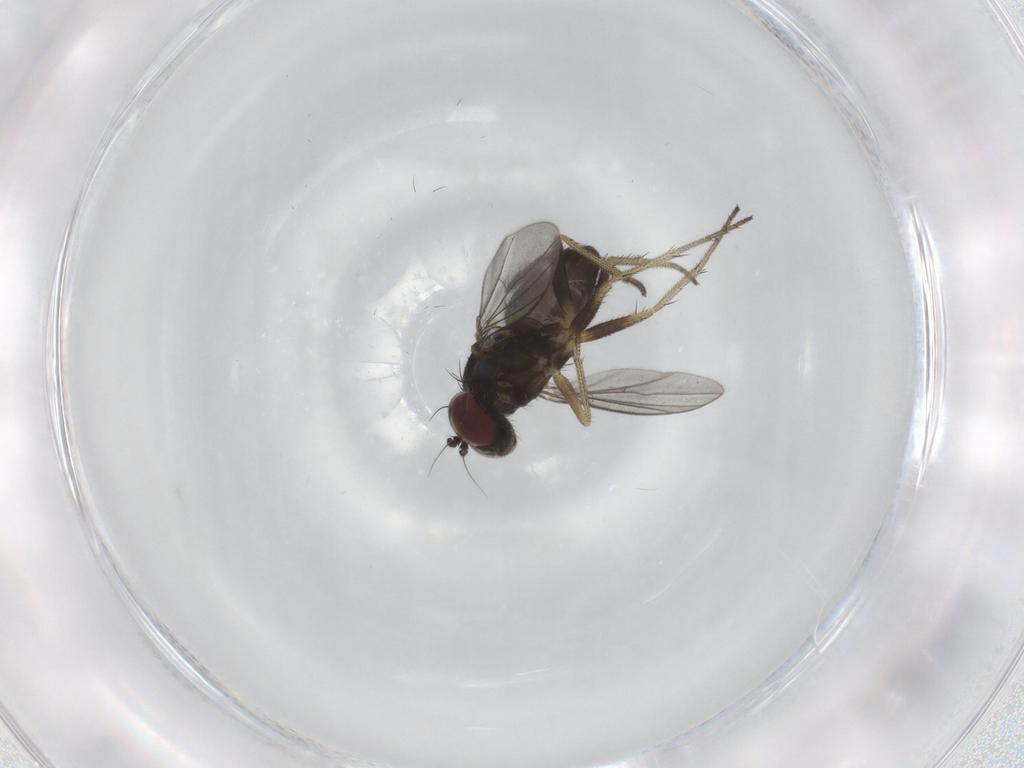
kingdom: Animalia
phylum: Arthropoda
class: Insecta
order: Diptera
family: Dolichopodidae
